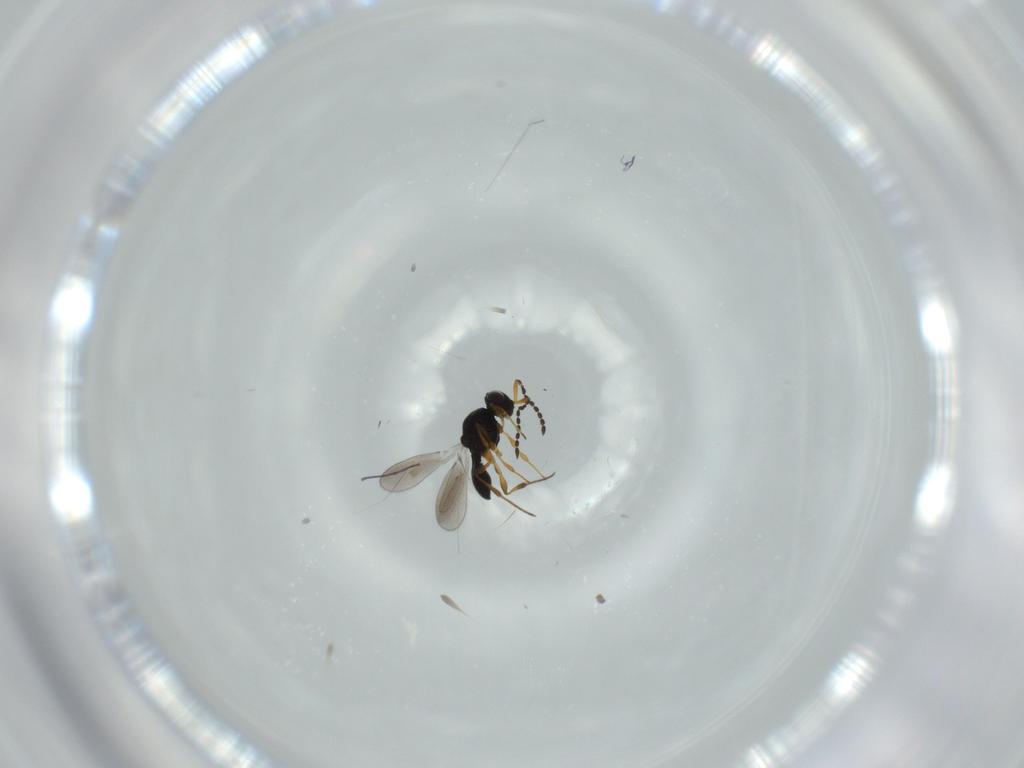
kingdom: Animalia
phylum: Arthropoda
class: Insecta
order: Hymenoptera
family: Platygastridae
